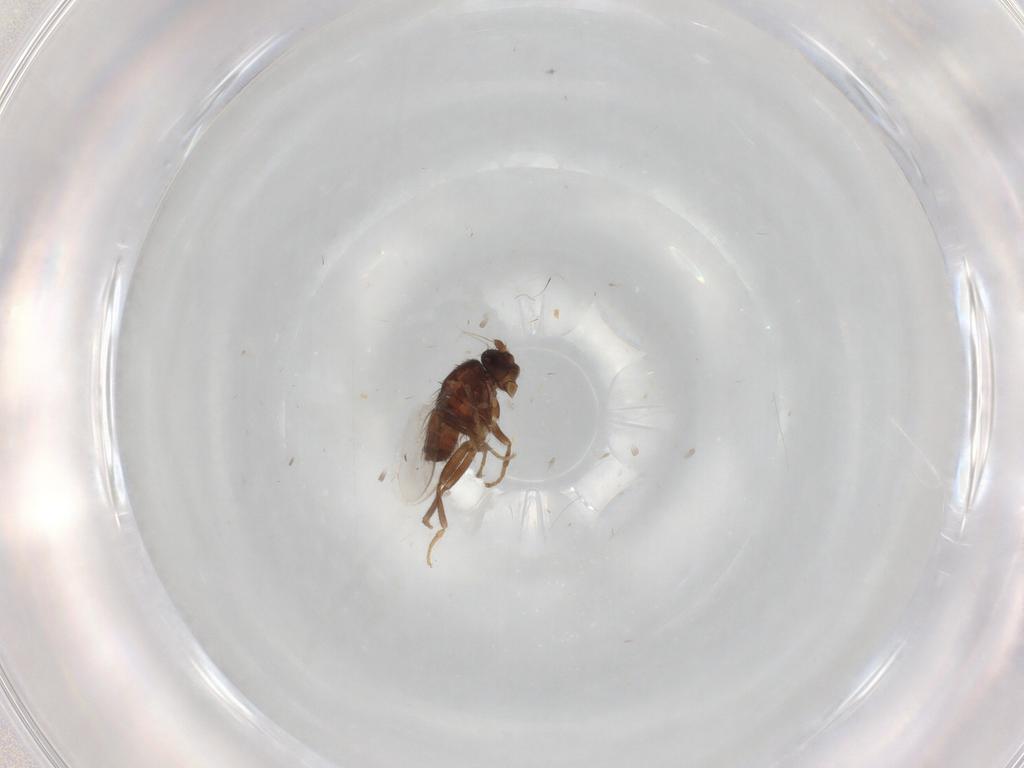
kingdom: Animalia
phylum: Arthropoda
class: Insecta
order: Diptera
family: Sphaeroceridae
